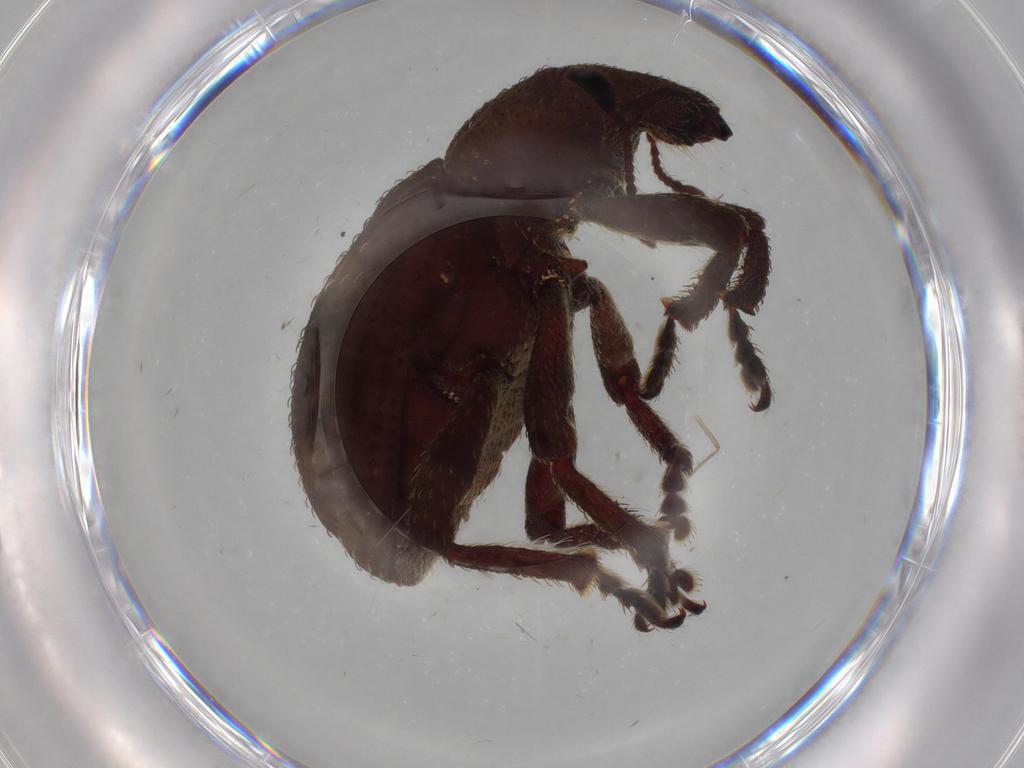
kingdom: Animalia
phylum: Arthropoda
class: Insecta
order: Coleoptera
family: Curculionidae
